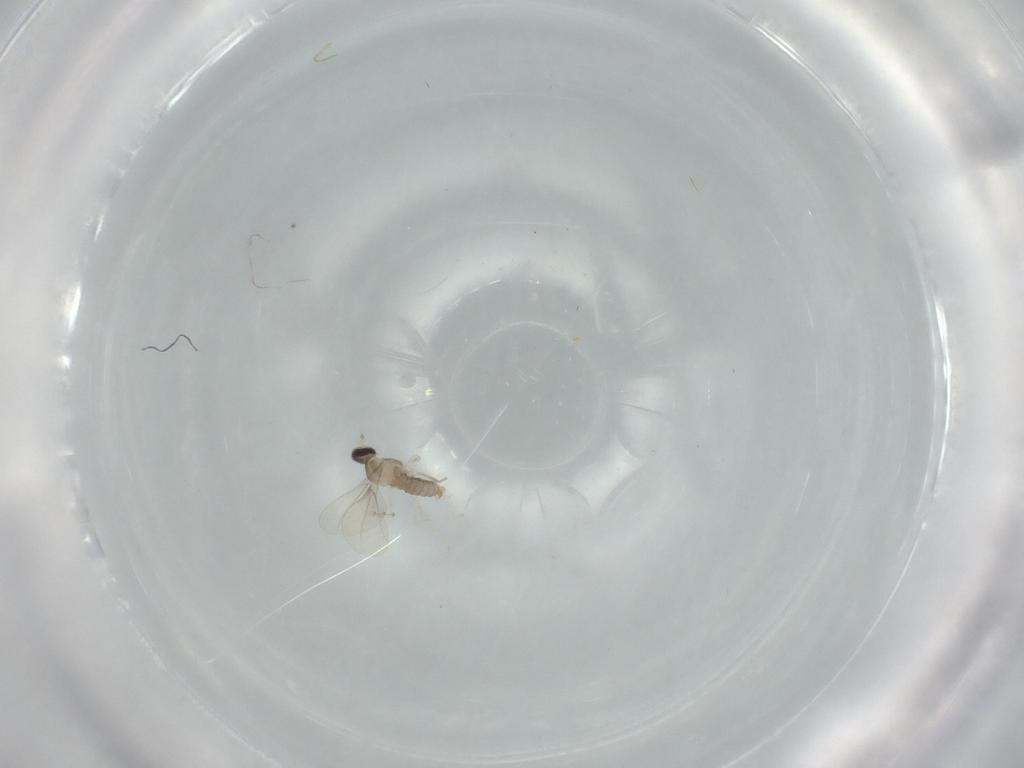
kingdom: Animalia
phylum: Arthropoda
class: Insecta
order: Diptera
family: Cecidomyiidae
